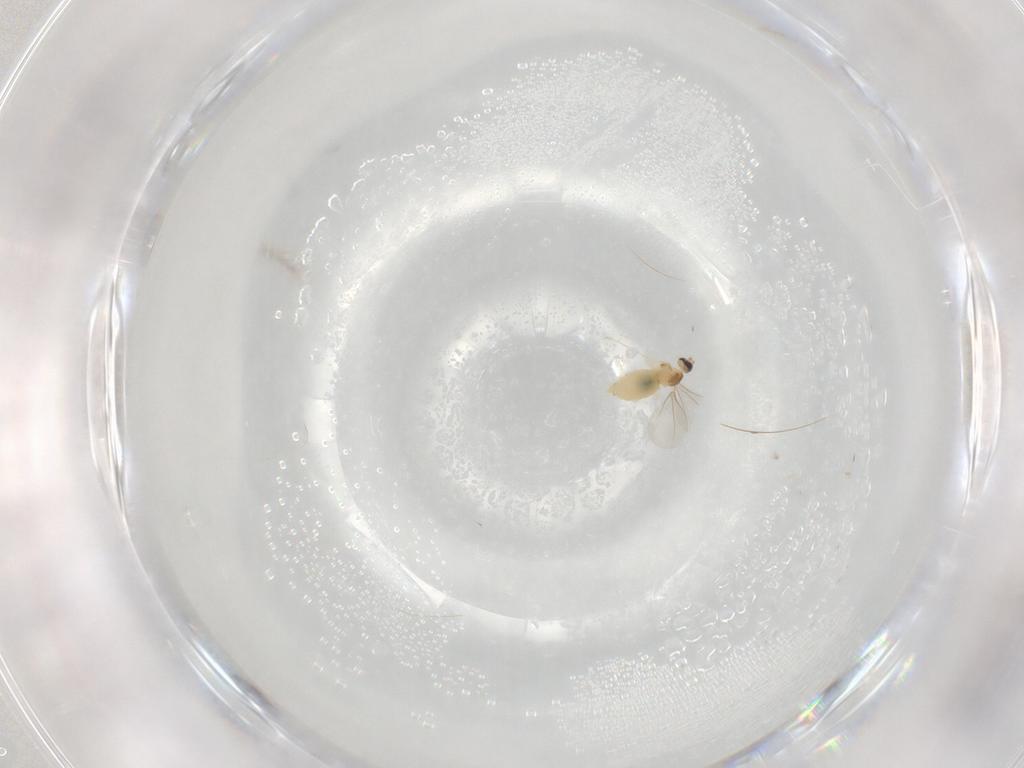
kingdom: Animalia
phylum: Arthropoda
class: Insecta
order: Diptera
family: Cecidomyiidae
